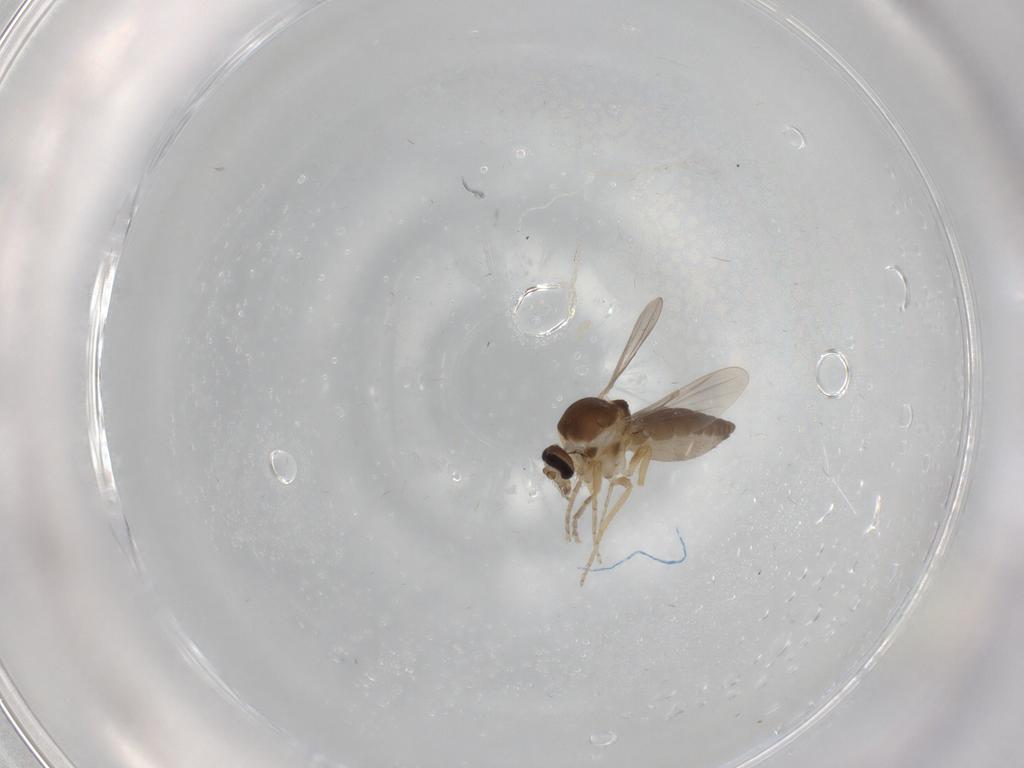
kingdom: Animalia
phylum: Arthropoda
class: Insecta
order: Diptera
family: Ceratopogonidae
